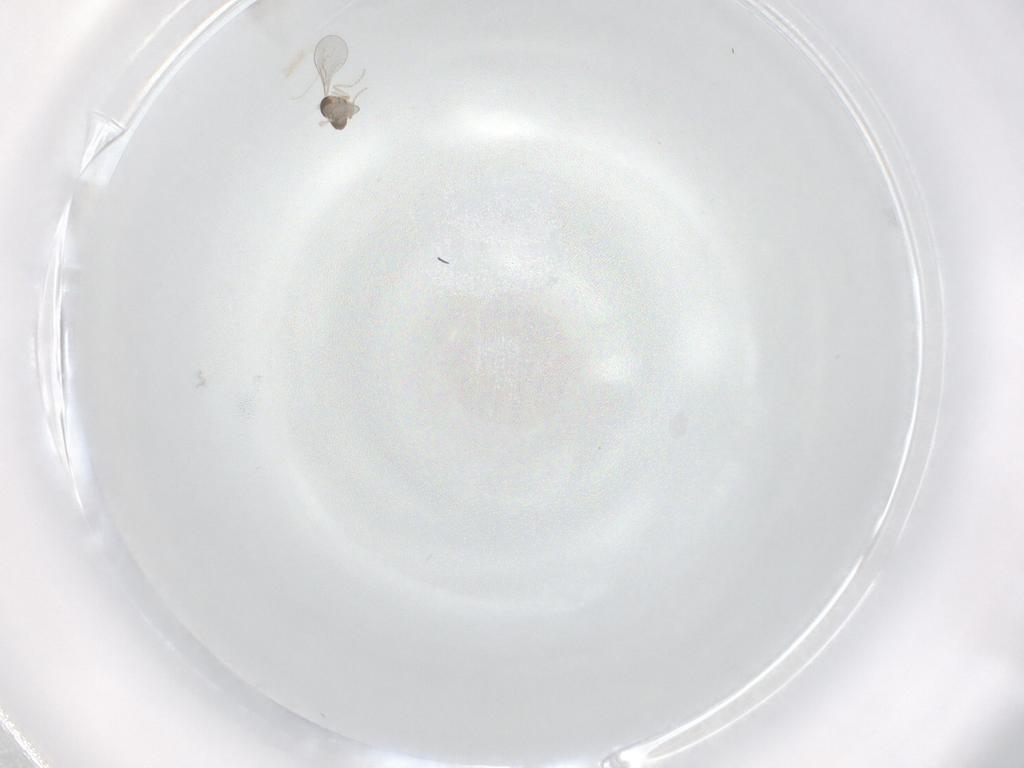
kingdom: Animalia
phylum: Arthropoda
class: Insecta
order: Diptera
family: Cecidomyiidae
